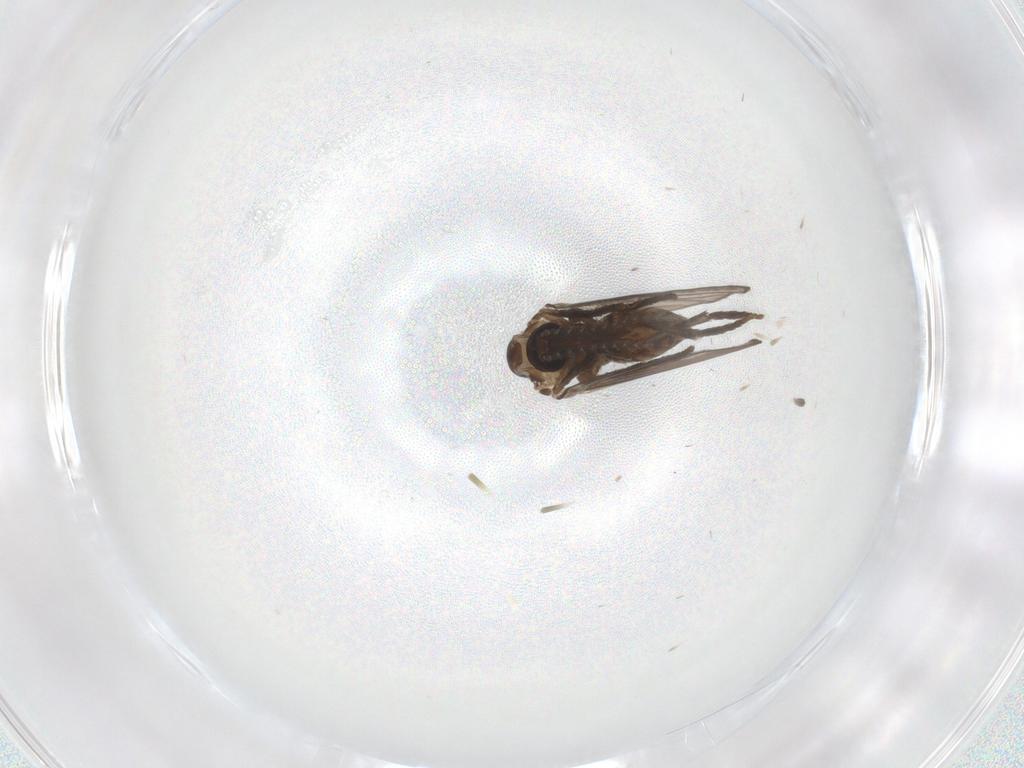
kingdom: Animalia
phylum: Arthropoda
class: Insecta
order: Diptera
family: Psychodidae
